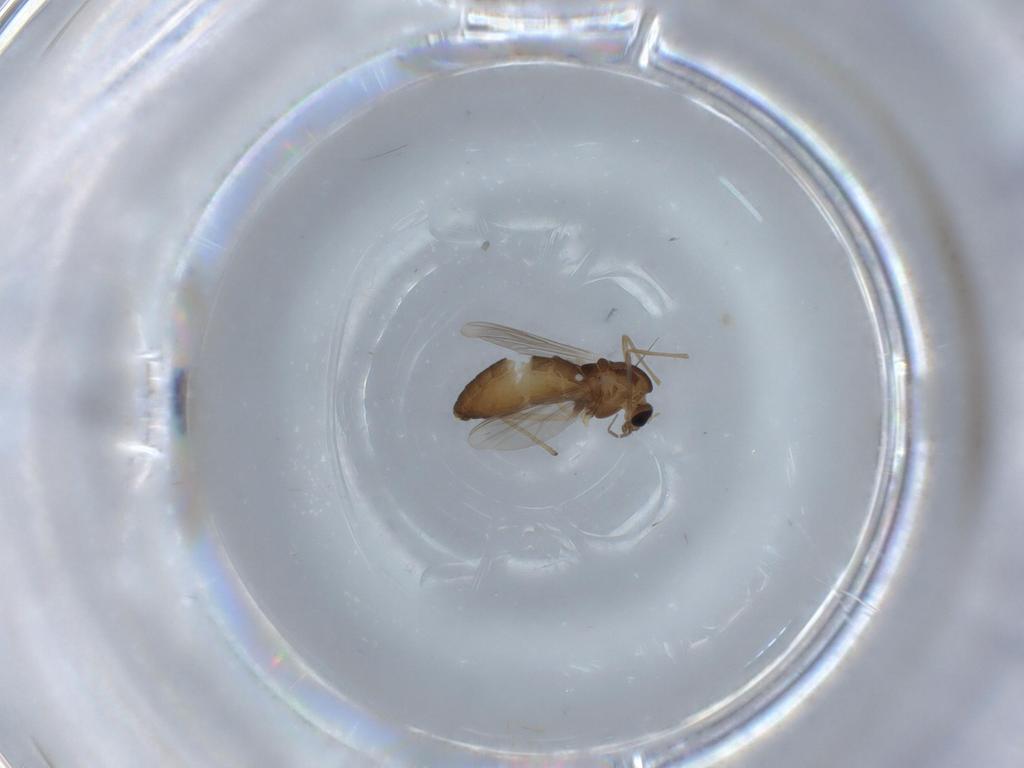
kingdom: Animalia
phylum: Arthropoda
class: Insecta
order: Diptera
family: Chironomidae
